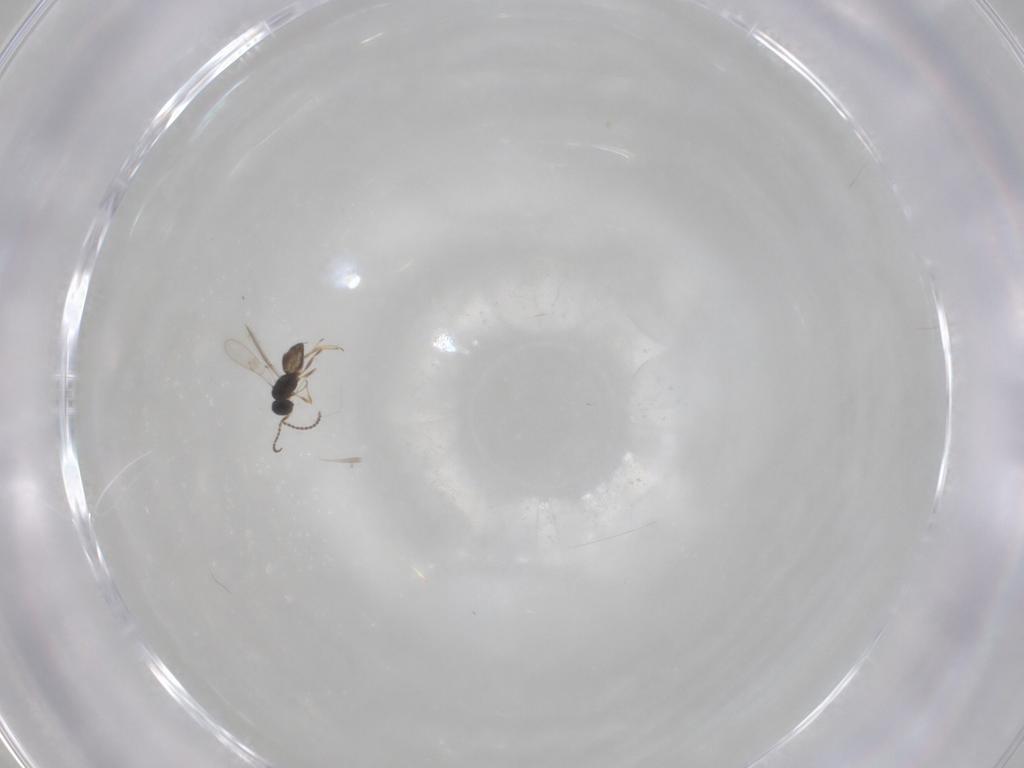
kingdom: Animalia
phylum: Arthropoda
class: Insecta
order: Hymenoptera
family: Scelionidae
